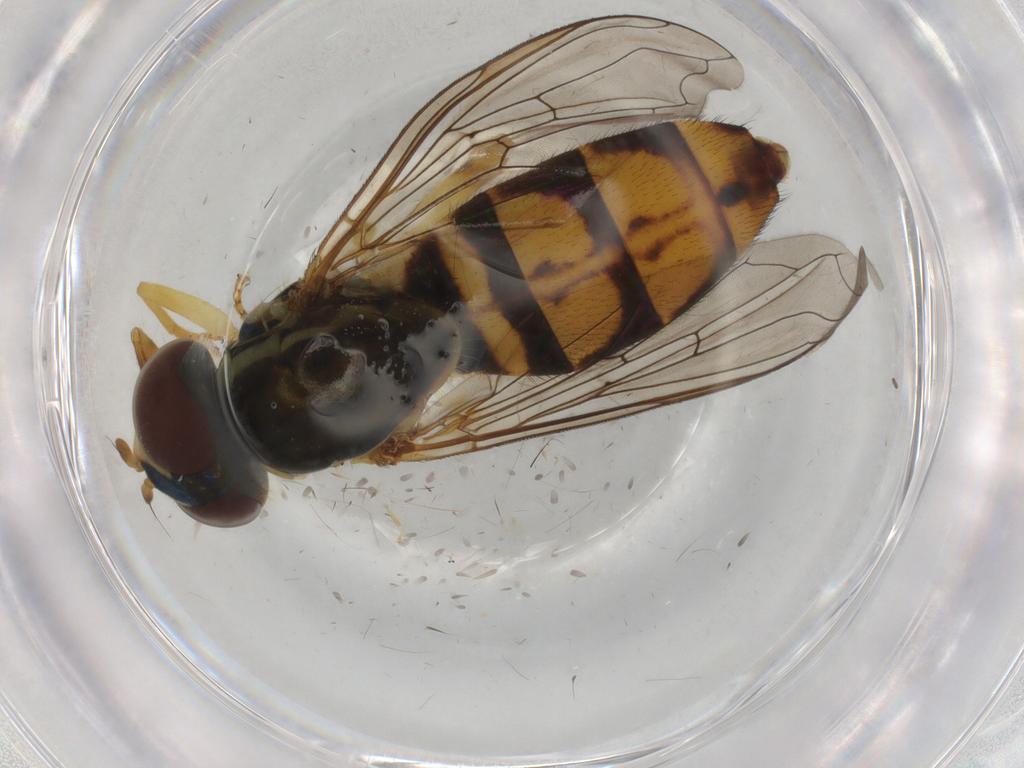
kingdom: Animalia
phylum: Arthropoda
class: Insecta
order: Diptera
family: Syrphidae
